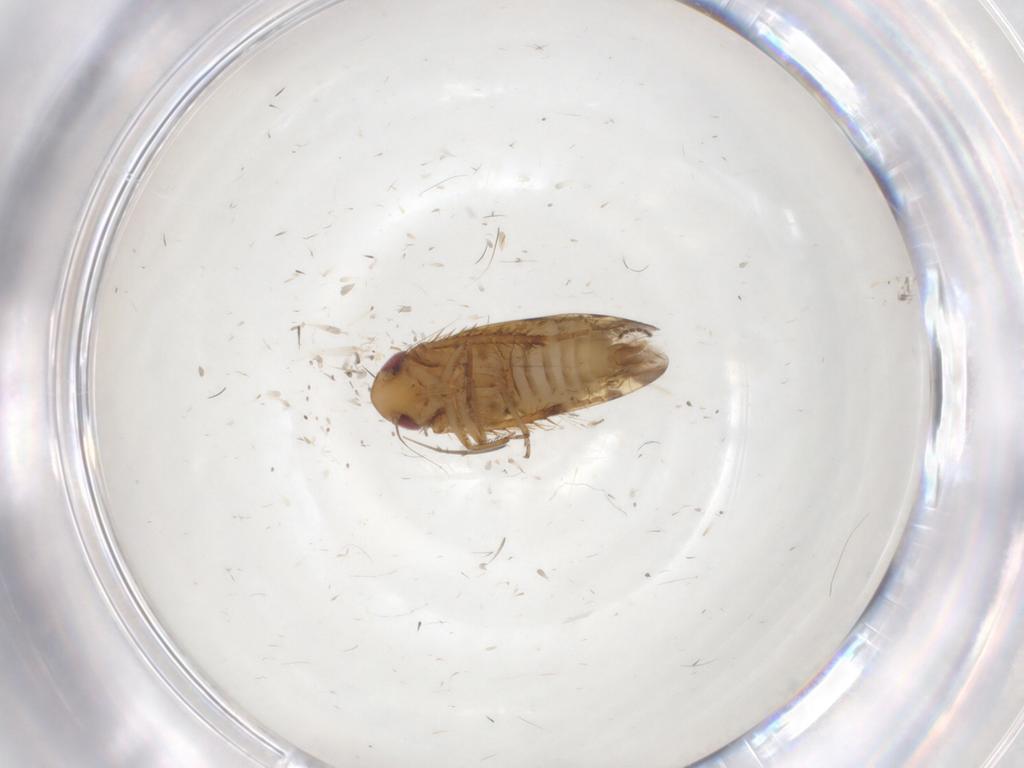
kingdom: Animalia
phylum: Arthropoda
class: Insecta
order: Hemiptera
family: Cicadellidae
